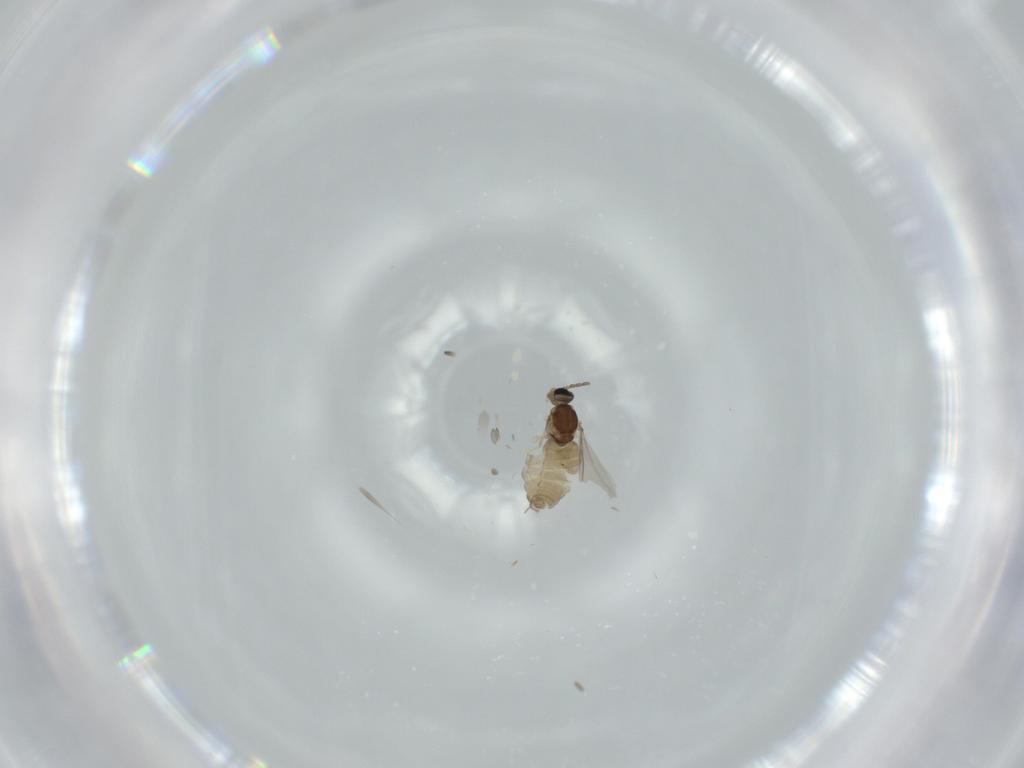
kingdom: Animalia
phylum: Arthropoda
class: Insecta
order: Diptera
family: Cecidomyiidae
